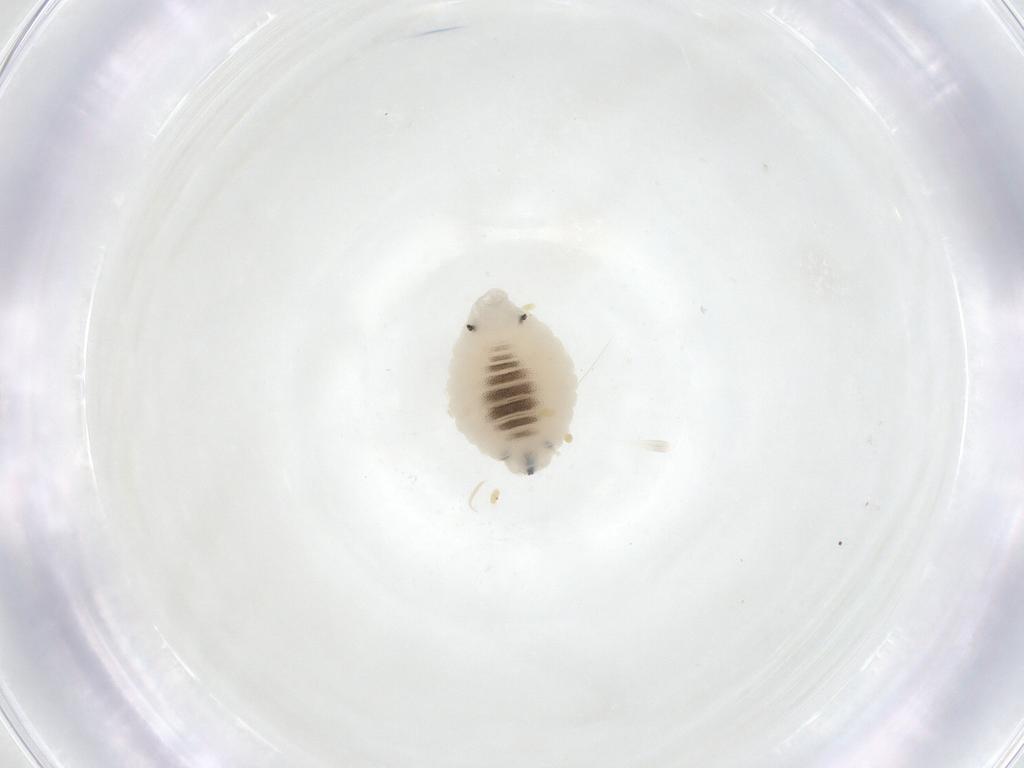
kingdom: Animalia
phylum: Arthropoda
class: Insecta
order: Diptera
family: Fergusoninidae
